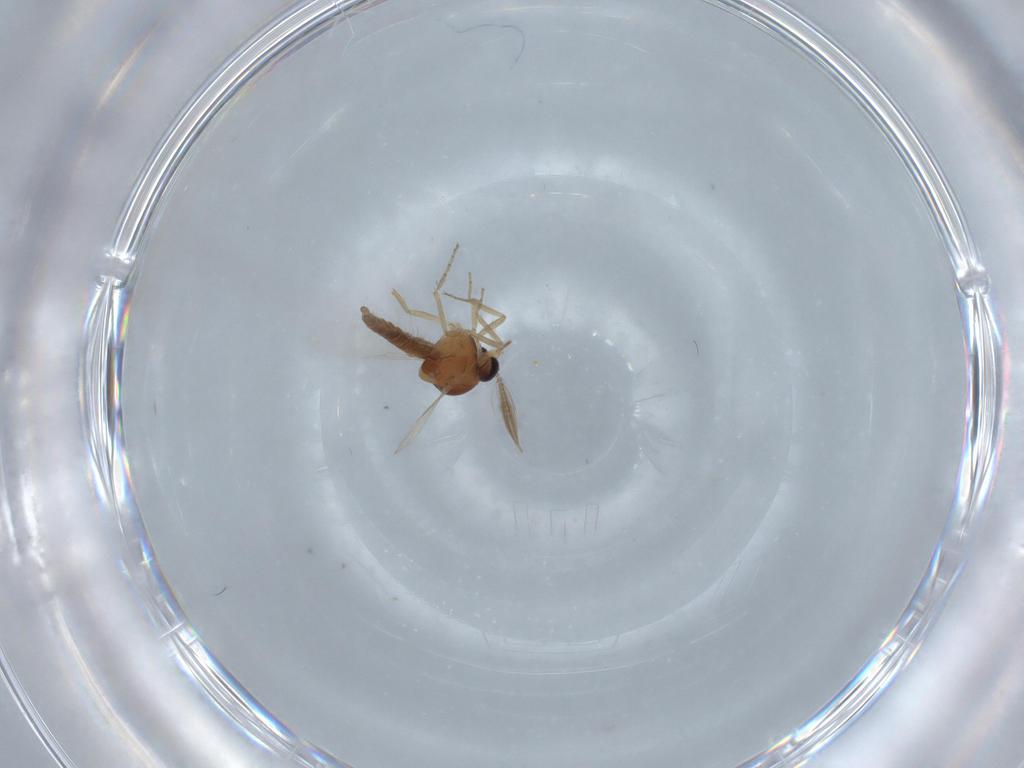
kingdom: Animalia
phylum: Arthropoda
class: Insecta
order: Diptera
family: Ceratopogonidae
